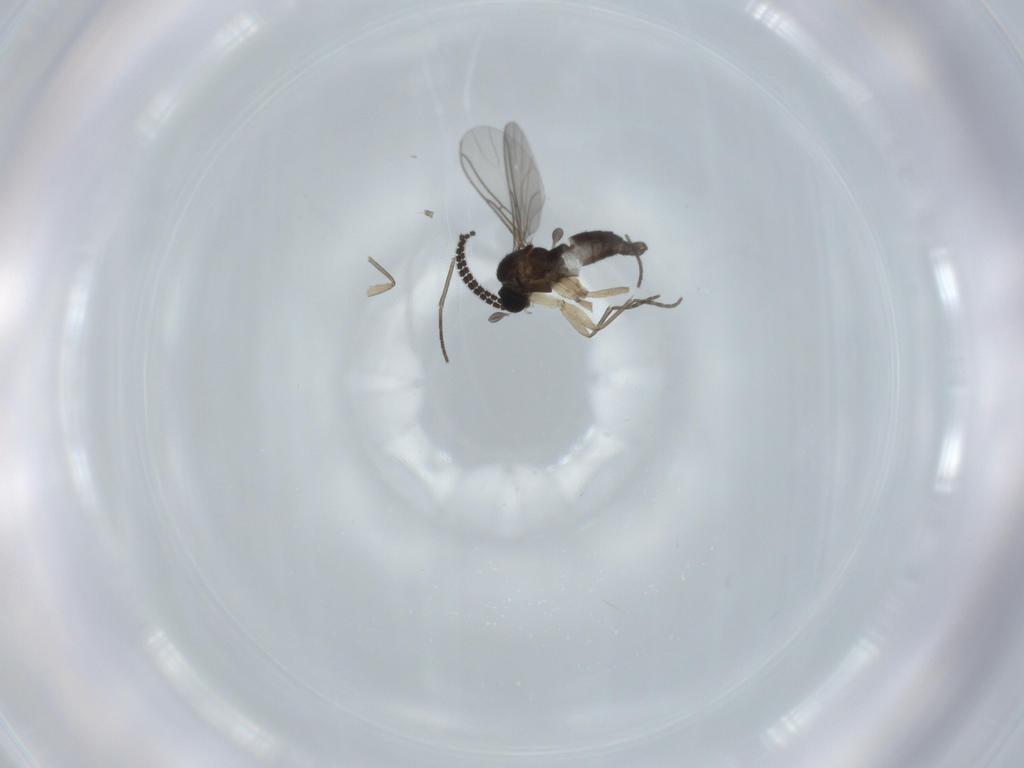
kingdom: Animalia
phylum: Arthropoda
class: Insecta
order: Diptera
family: Sciaridae
